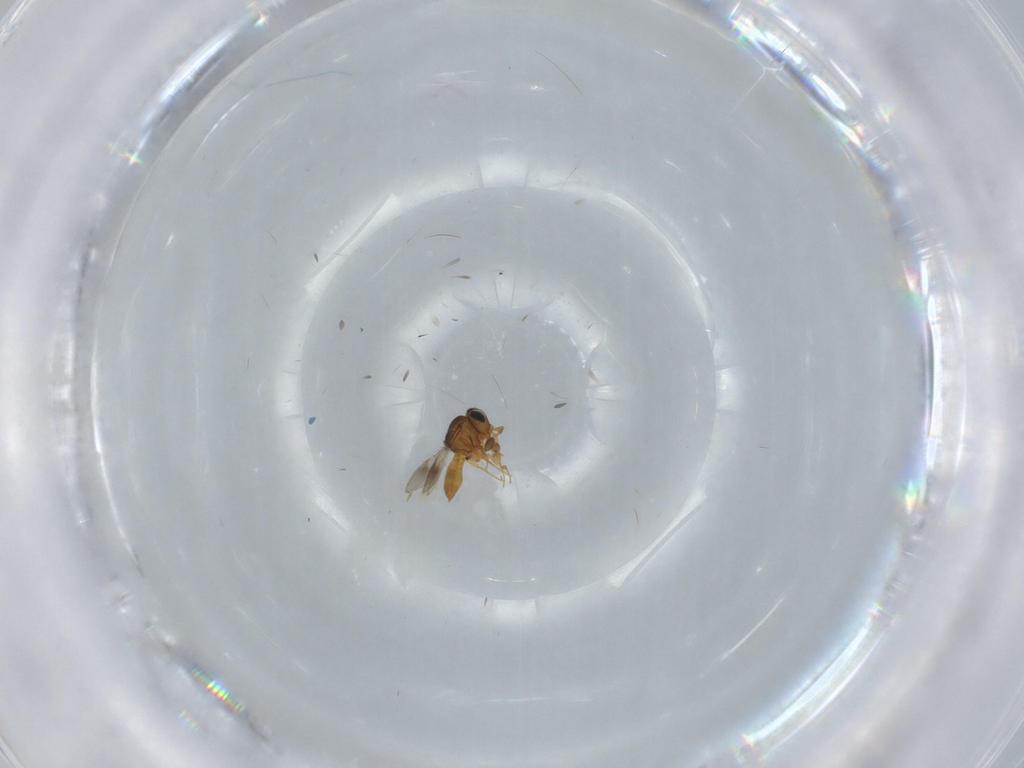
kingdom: Animalia
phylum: Arthropoda
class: Insecta
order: Hymenoptera
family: Scelionidae
